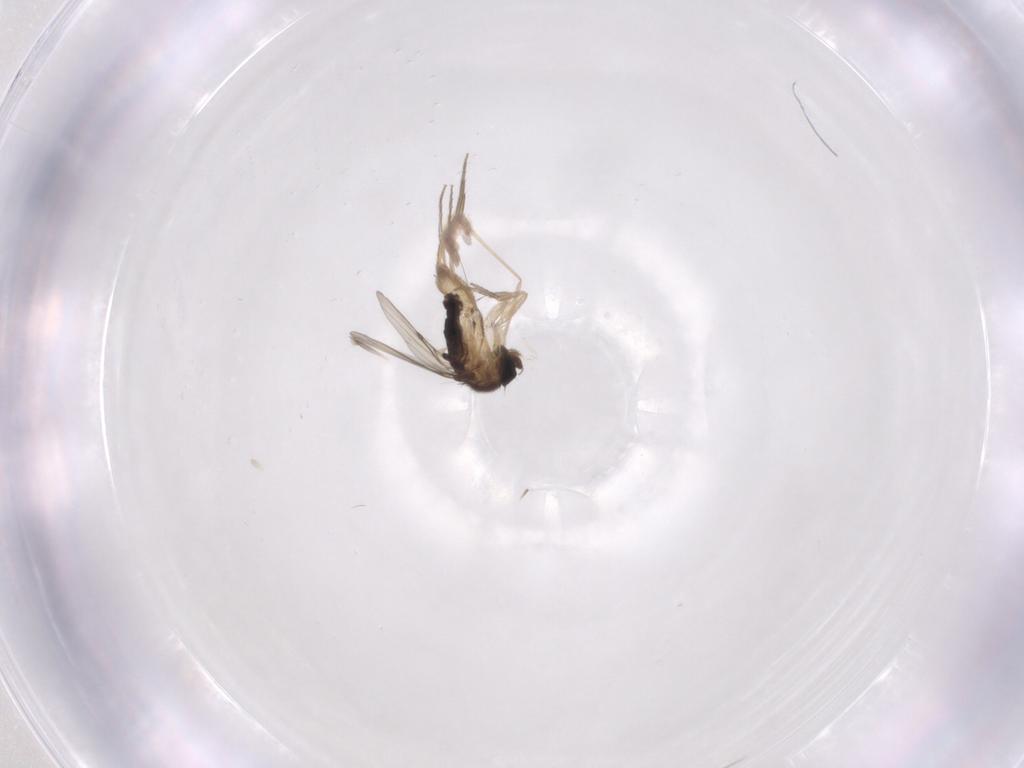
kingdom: Animalia
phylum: Arthropoda
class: Insecta
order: Diptera
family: Phoridae
